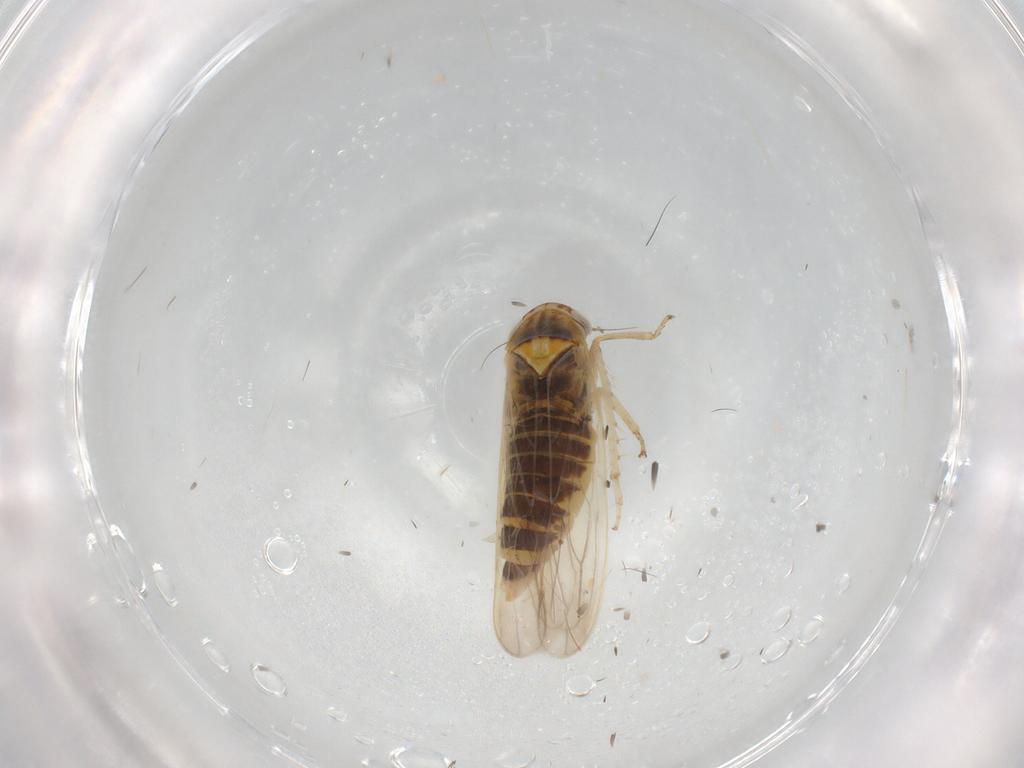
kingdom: Animalia
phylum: Arthropoda
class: Insecta
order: Hemiptera
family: Cicadellidae
